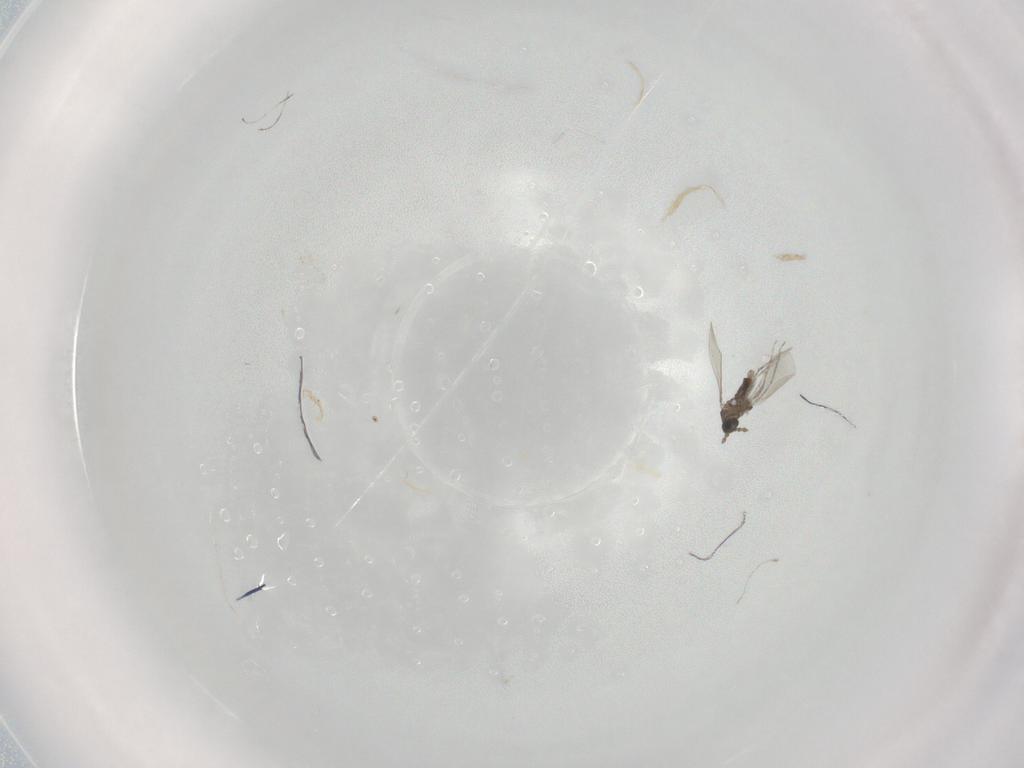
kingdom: Animalia
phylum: Arthropoda
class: Insecta
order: Diptera
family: Cecidomyiidae
